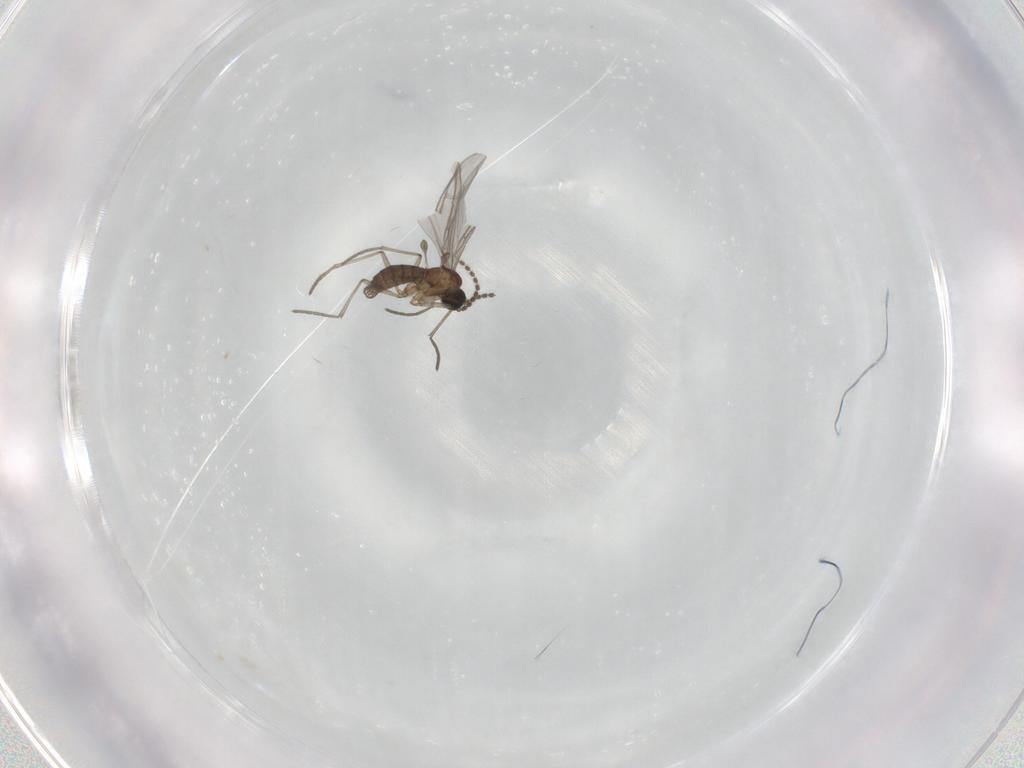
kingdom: Animalia
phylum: Arthropoda
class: Insecta
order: Diptera
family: Sciaridae
